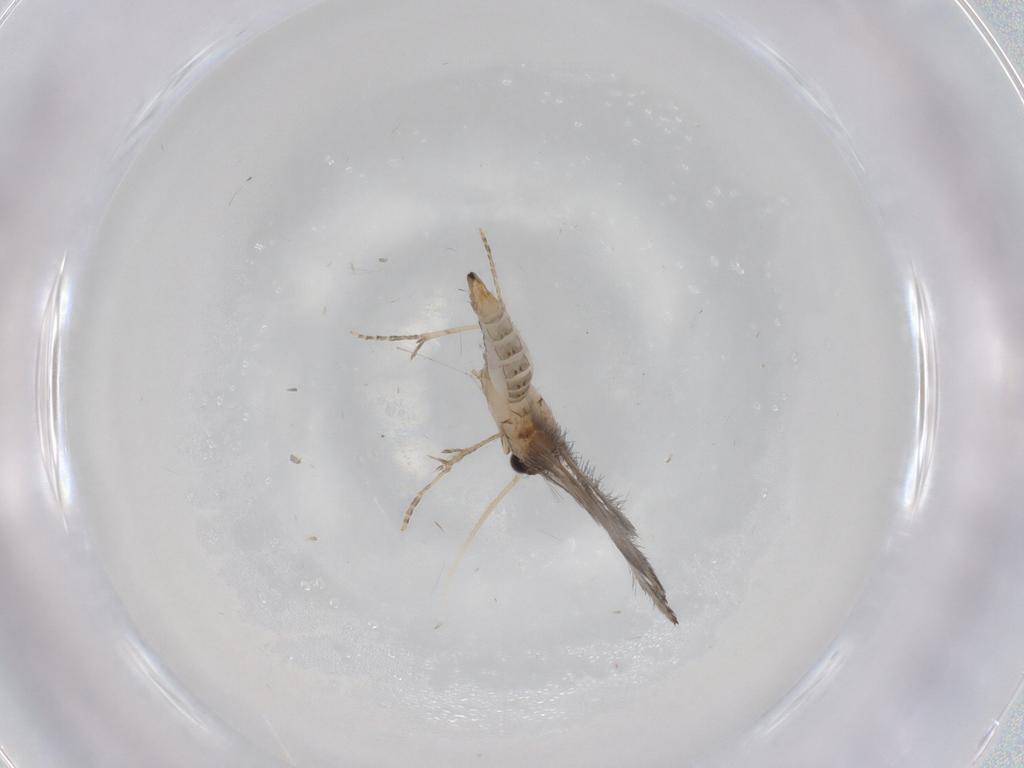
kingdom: Animalia
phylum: Arthropoda
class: Insecta
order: Trichoptera
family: Hydroptilidae
